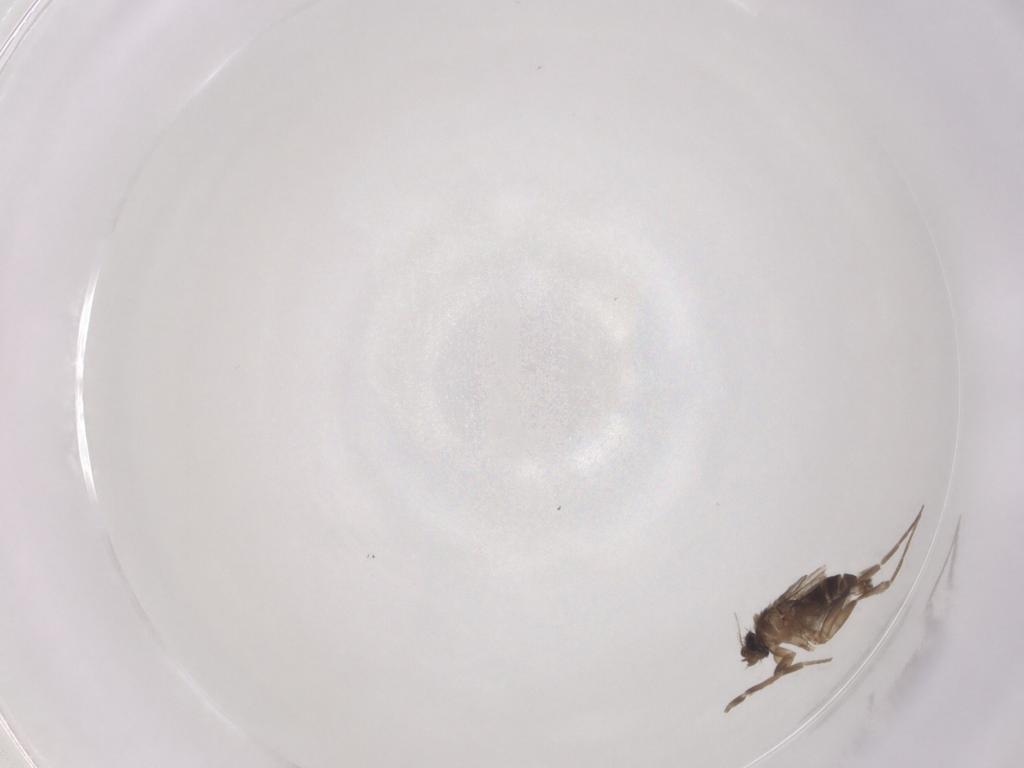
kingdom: Animalia
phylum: Arthropoda
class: Insecta
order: Diptera
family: Cecidomyiidae
